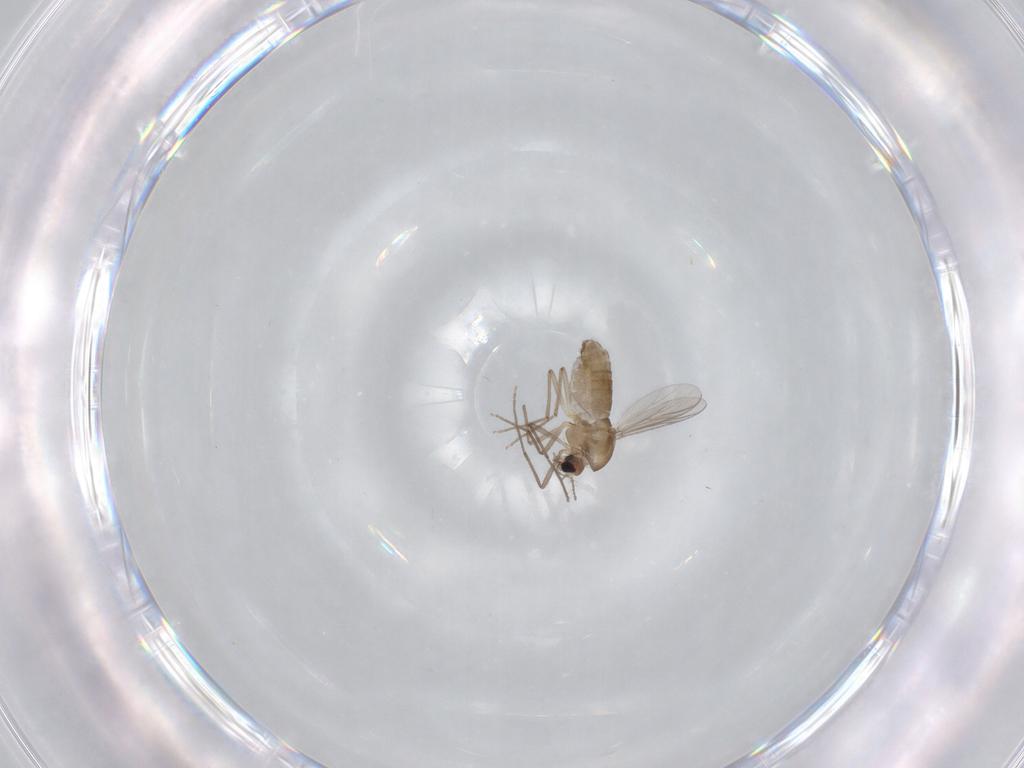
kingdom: Animalia
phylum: Arthropoda
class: Insecta
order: Diptera
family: Chironomidae
